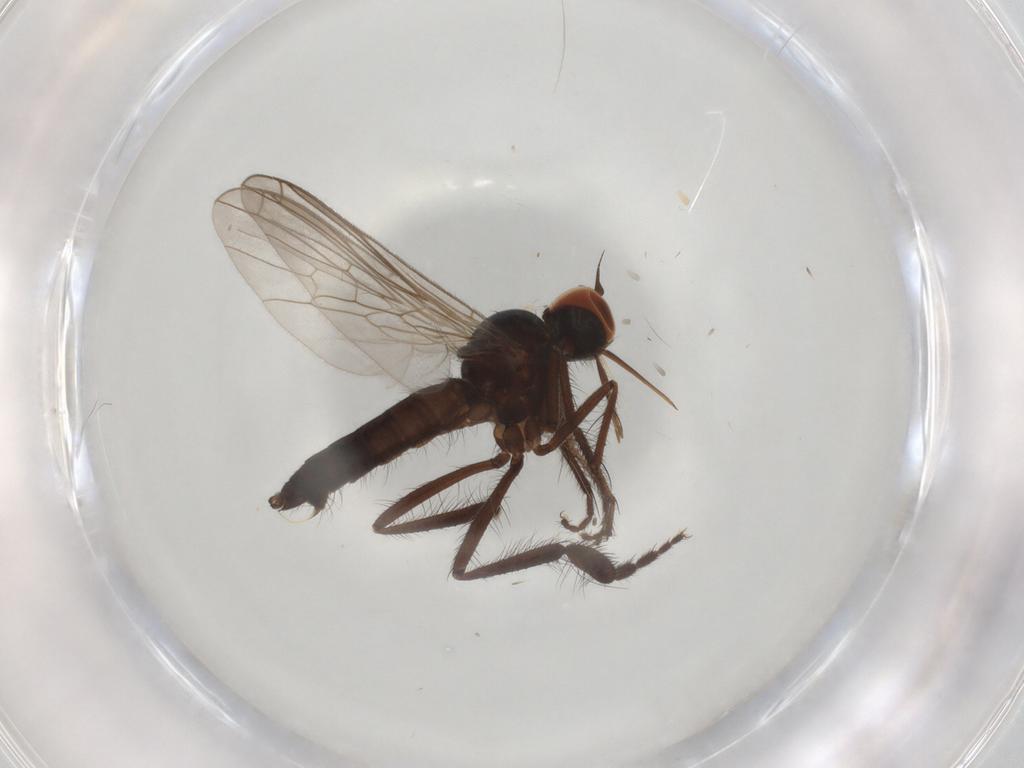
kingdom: Animalia
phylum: Arthropoda
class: Insecta
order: Diptera
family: Empididae
